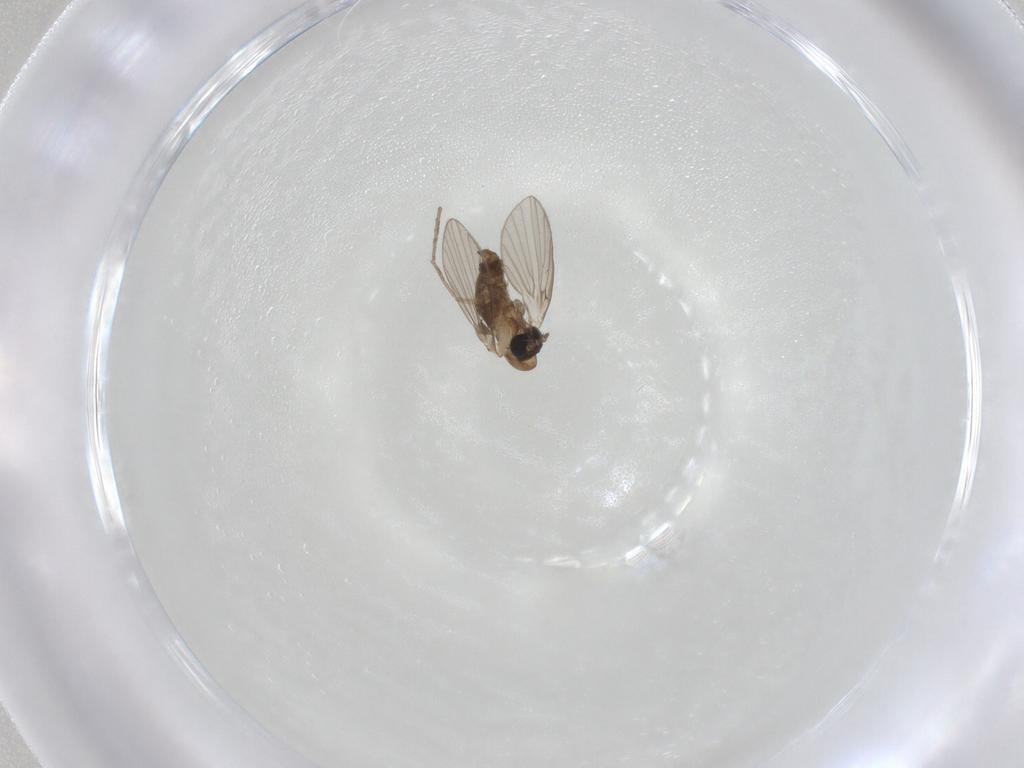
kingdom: Animalia
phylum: Arthropoda
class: Insecta
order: Diptera
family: Psychodidae
